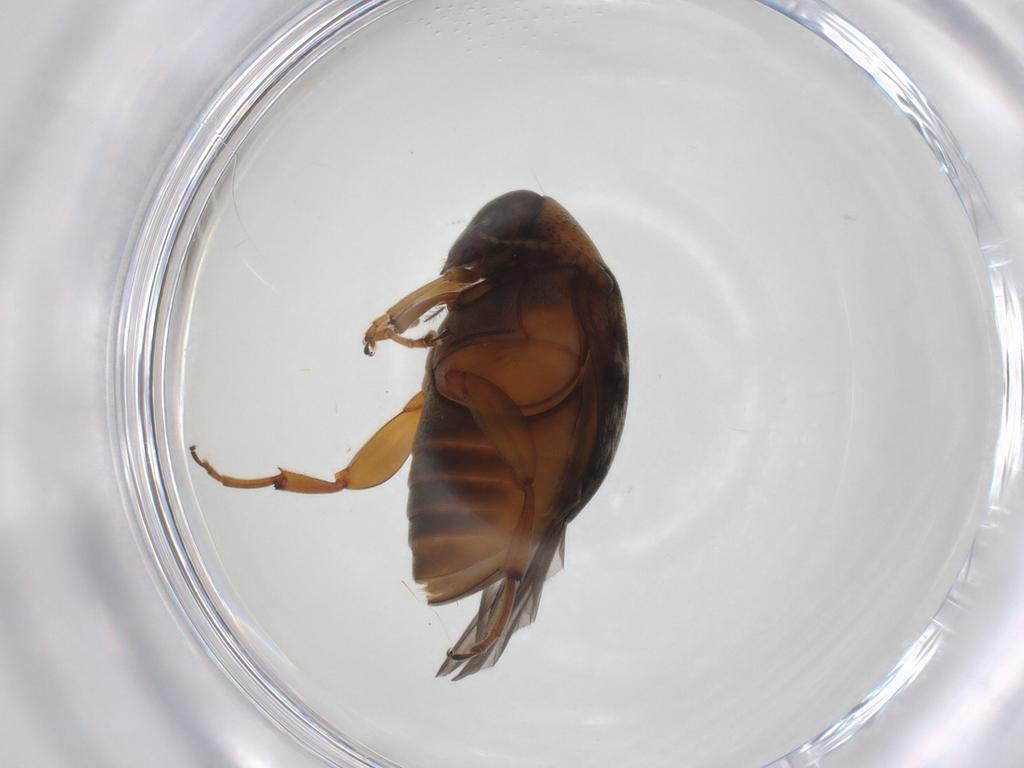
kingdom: Animalia
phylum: Arthropoda
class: Insecta
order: Coleoptera
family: Chrysomelidae
